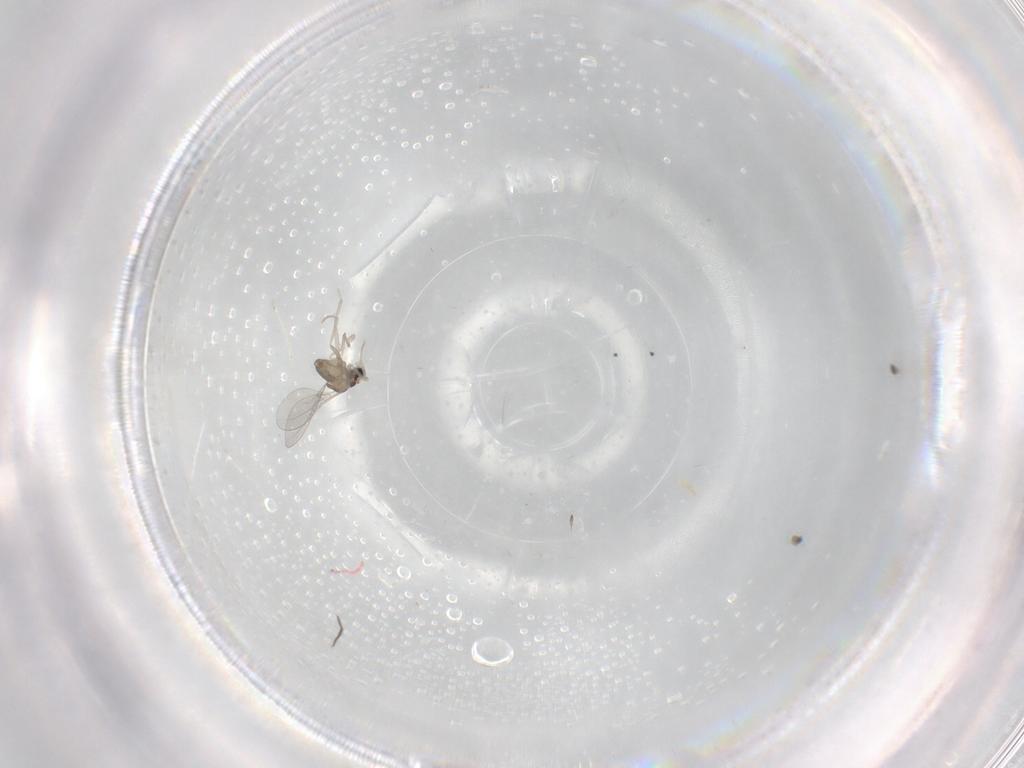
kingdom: Animalia
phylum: Arthropoda
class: Insecta
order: Diptera
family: Cecidomyiidae
